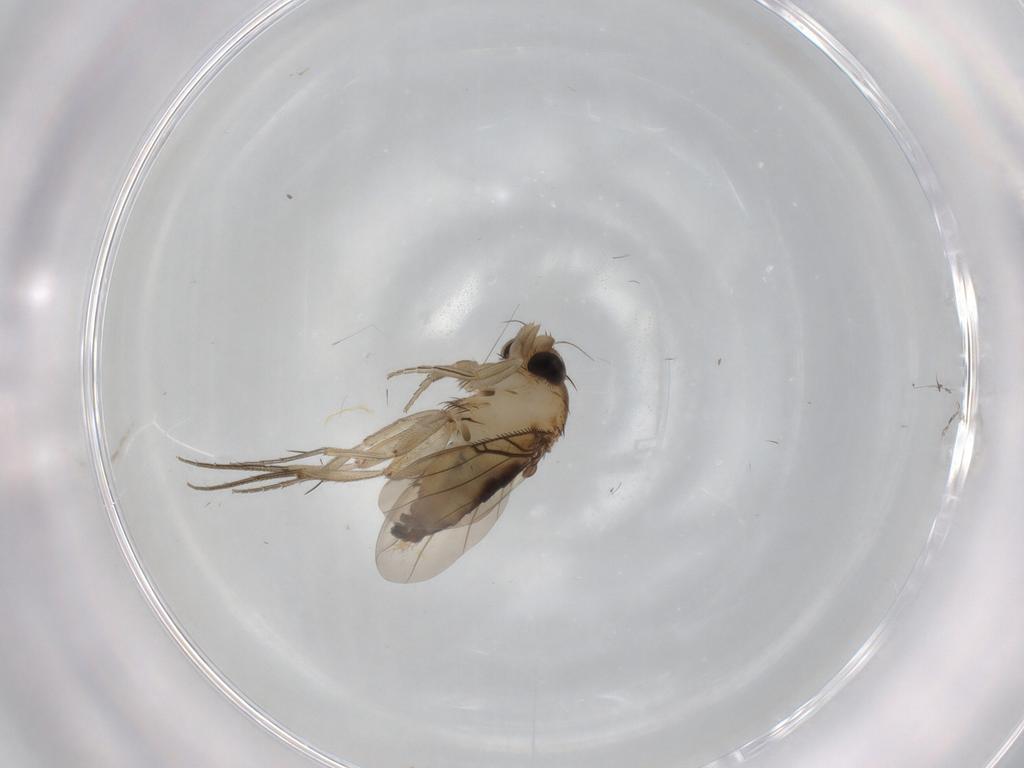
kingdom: Animalia
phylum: Arthropoda
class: Insecta
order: Diptera
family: Phoridae
